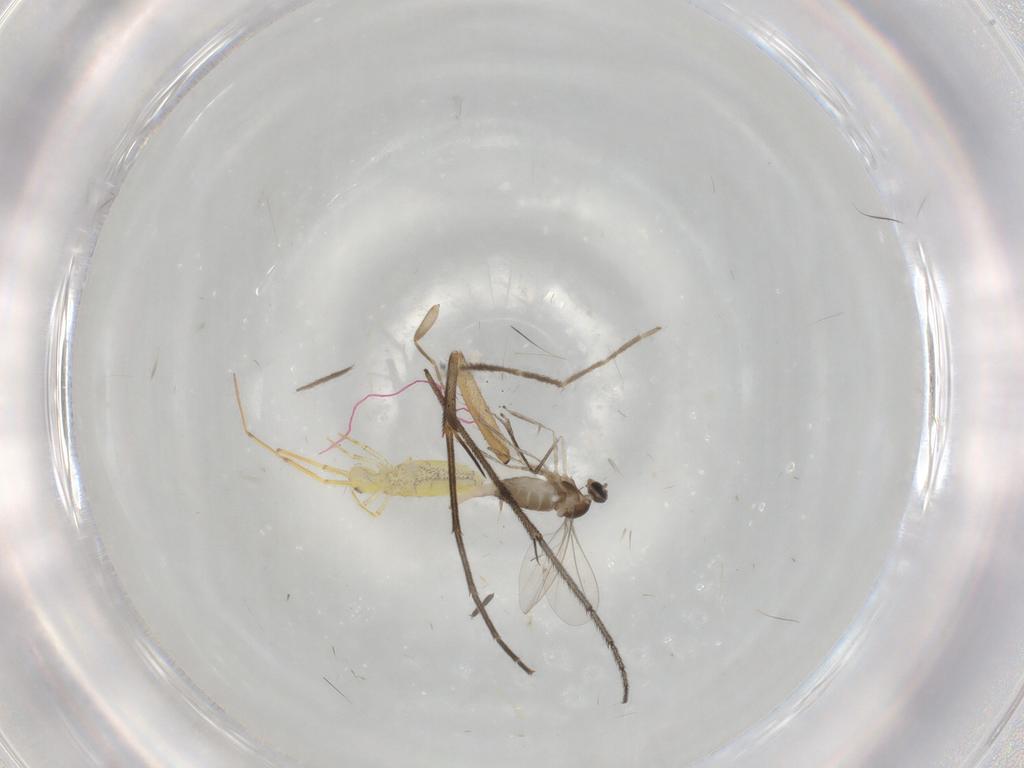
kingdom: Animalia
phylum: Arthropoda
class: Insecta
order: Diptera
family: Mycetophilidae
